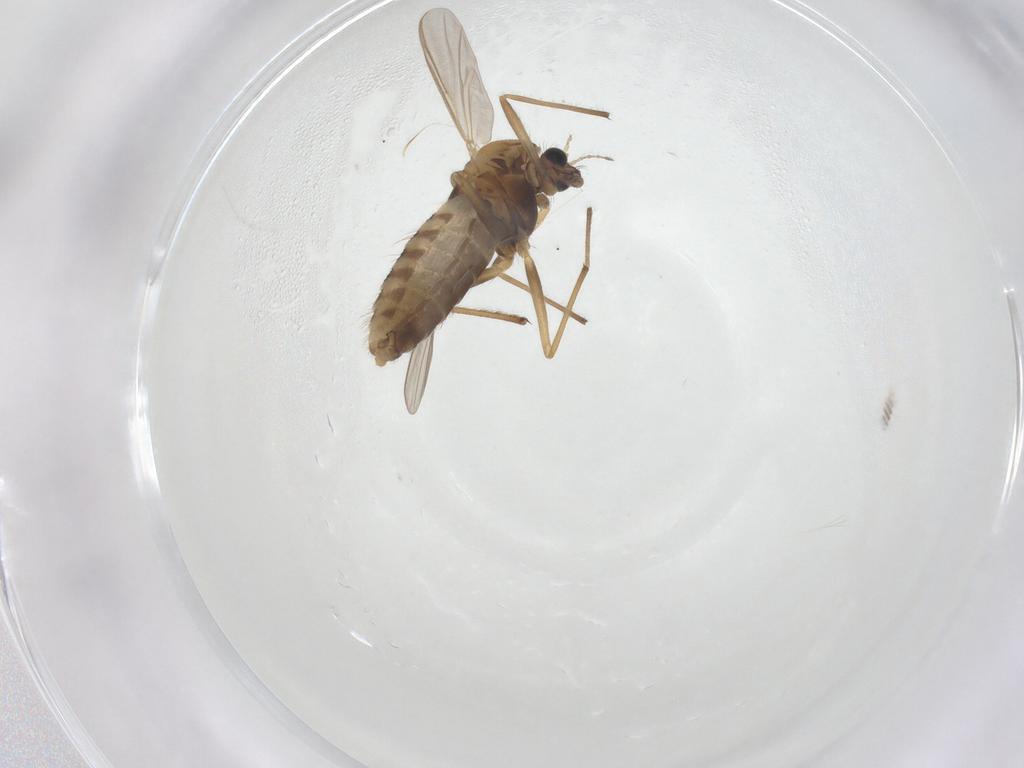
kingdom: Animalia
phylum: Arthropoda
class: Insecta
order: Diptera
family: Chironomidae
